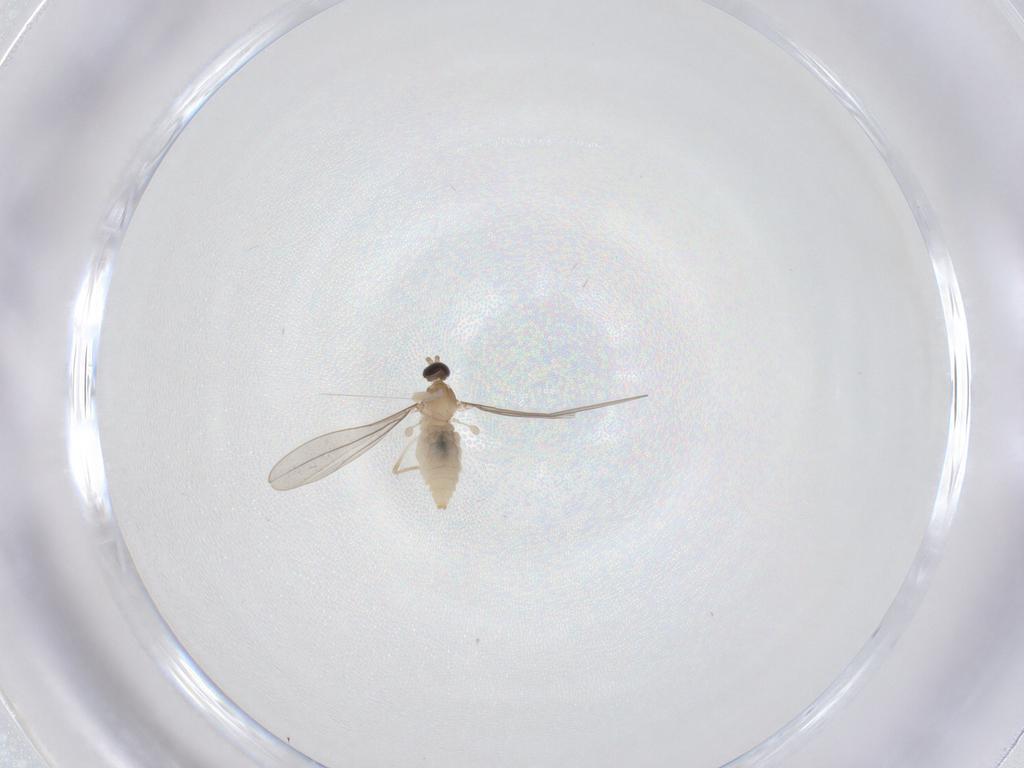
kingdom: Animalia
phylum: Arthropoda
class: Insecta
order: Diptera
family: Cecidomyiidae
